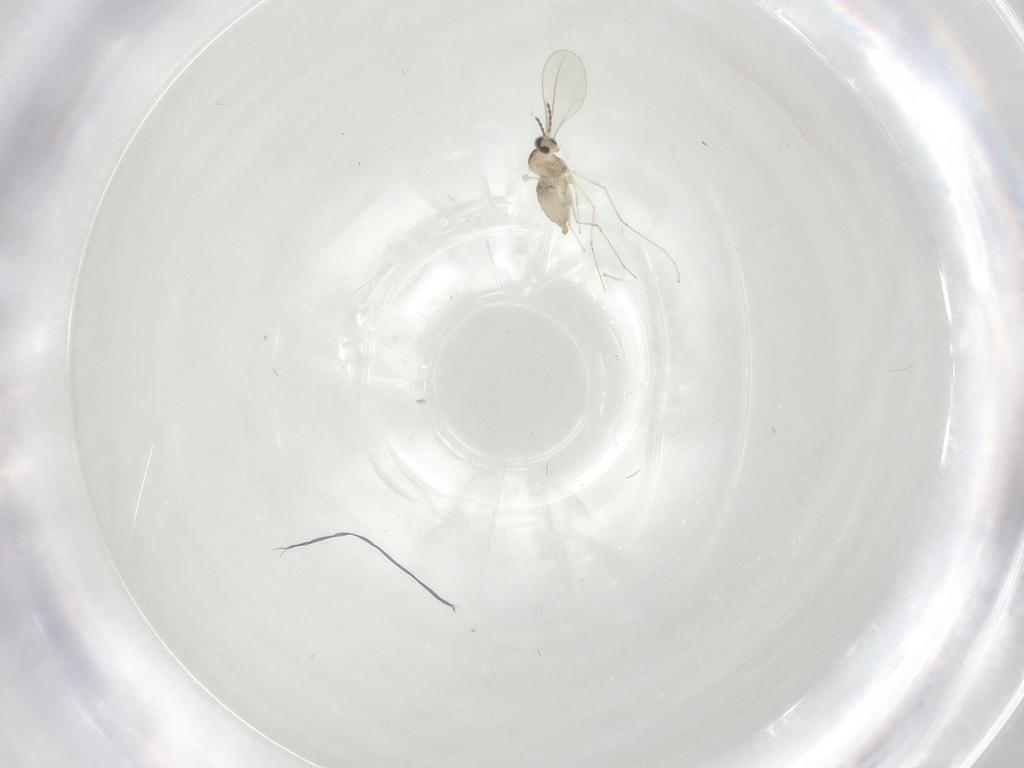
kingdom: Animalia
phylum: Arthropoda
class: Insecta
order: Diptera
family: Cecidomyiidae
